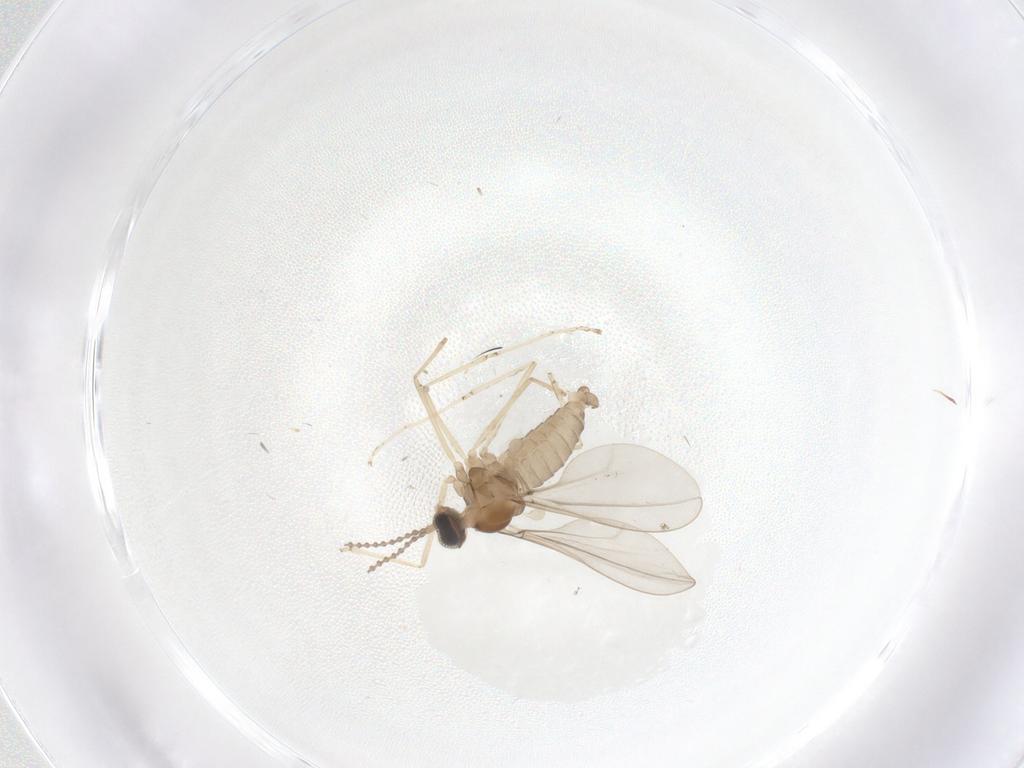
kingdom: Animalia
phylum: Arthropoda
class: Insecta
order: Diptera
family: Cecidomyiidae
